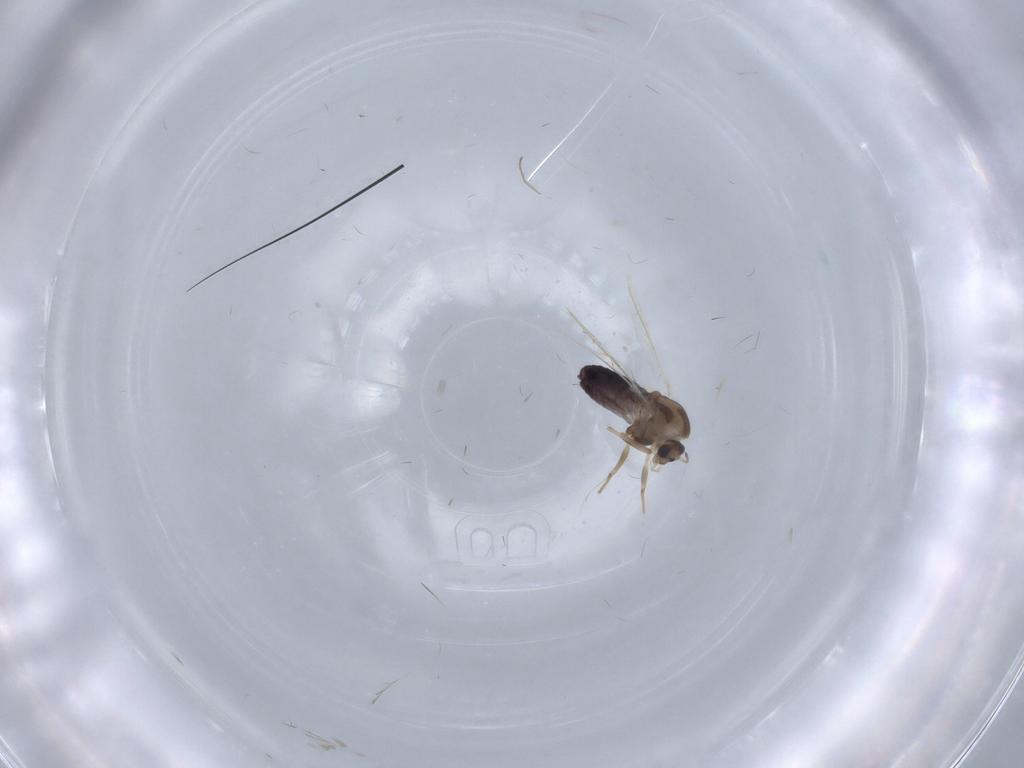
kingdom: Animalia
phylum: Arthropoda
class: Insecta
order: Diptera
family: Chironomidae
